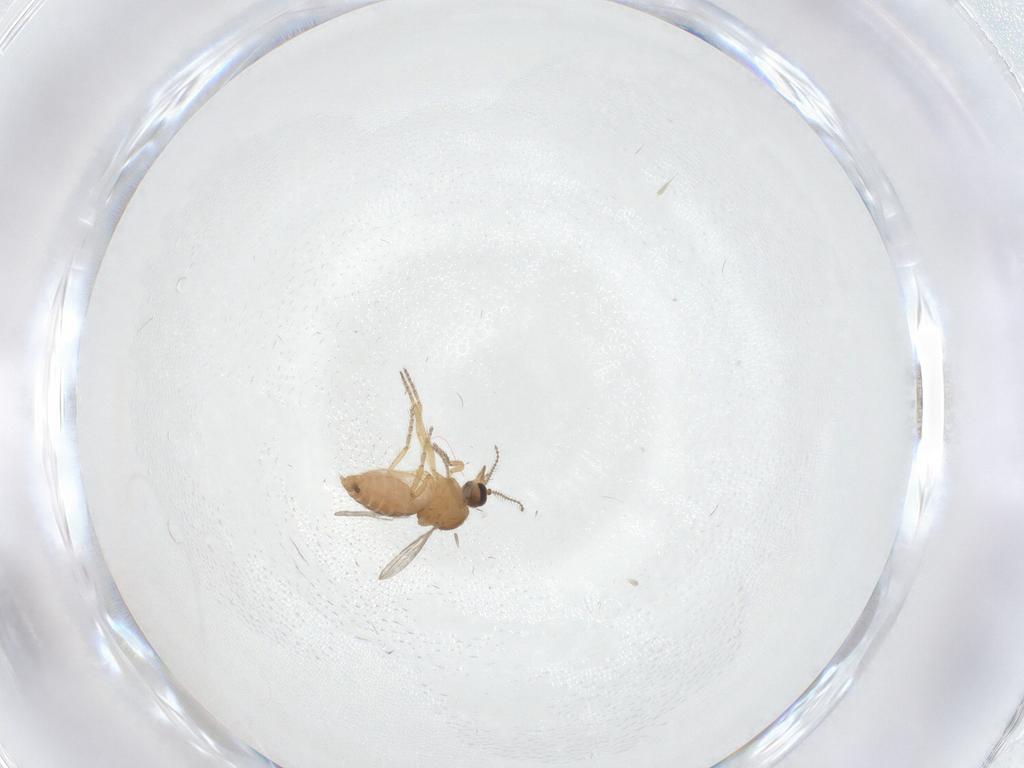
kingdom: Animalia
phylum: Arthropoda
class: Insecta
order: Diptera
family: Ceratopogonidae
